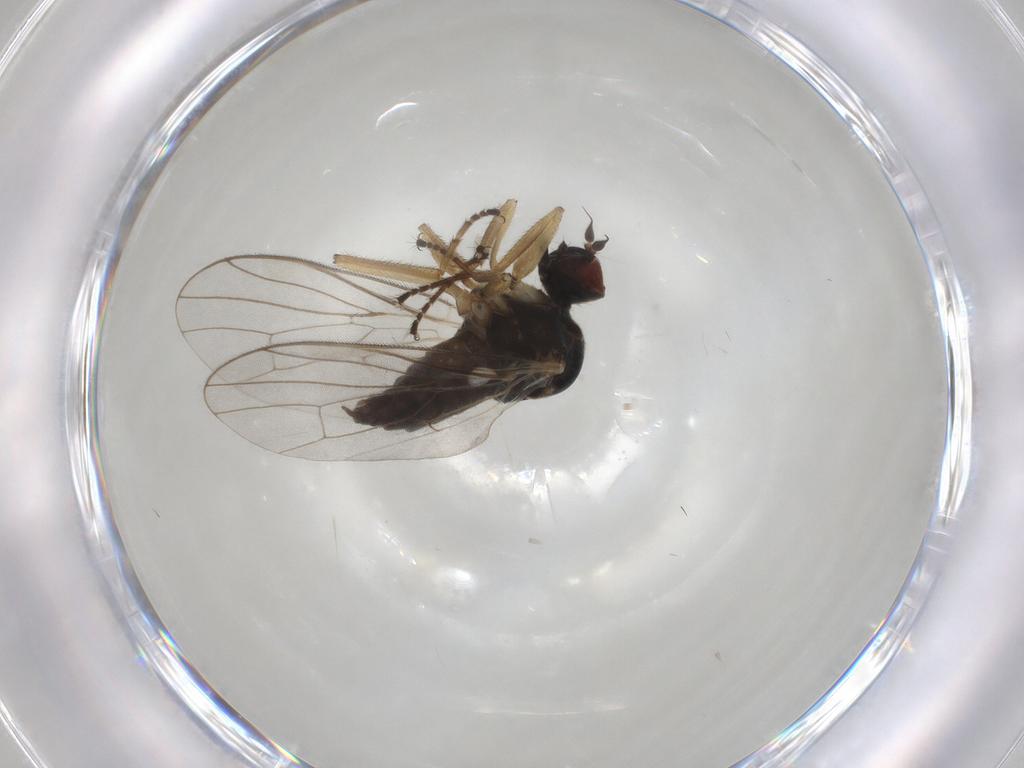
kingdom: Animalia
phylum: Arthropoda
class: Insecta
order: Diptera
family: Hybotidae
